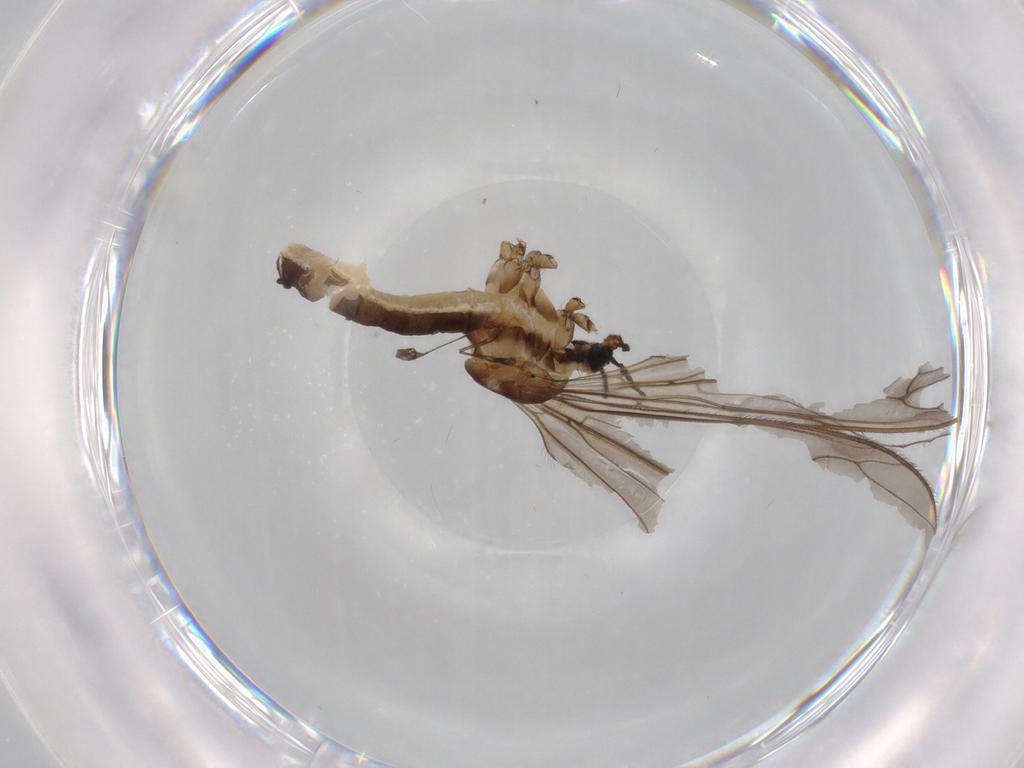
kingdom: Animalia
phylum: Arthropoda
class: Insecta
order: Diptera
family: Limoniidae
